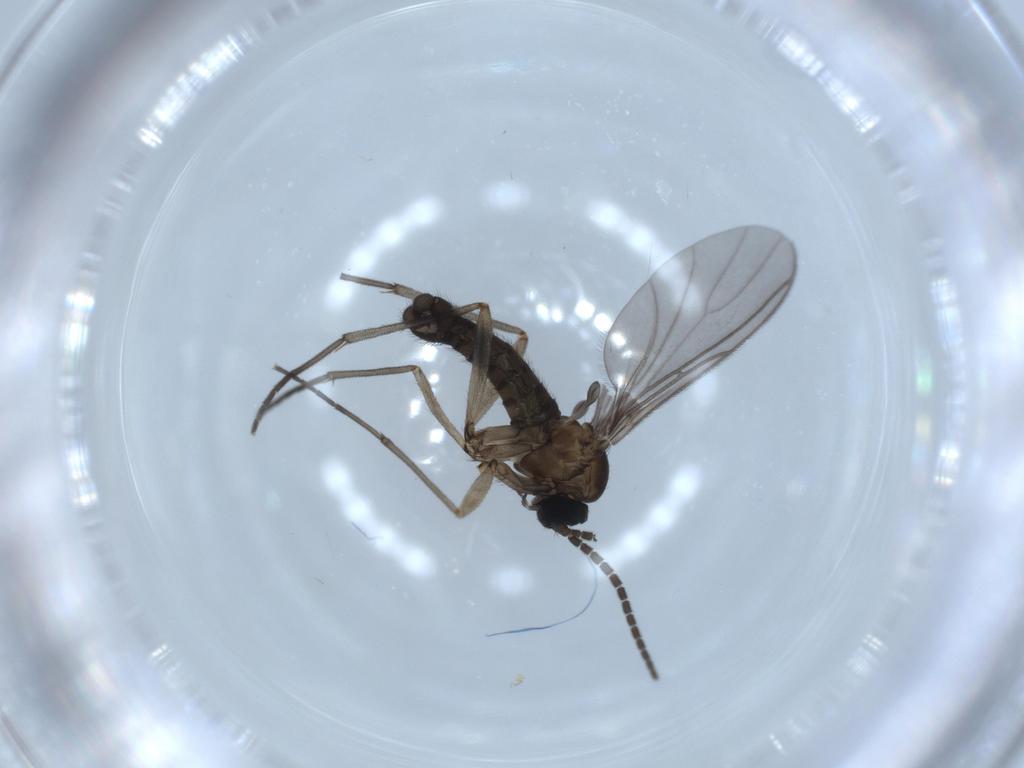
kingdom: Animalia
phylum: Arthropoda
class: Insecta
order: Diptera
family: Sciaridae
